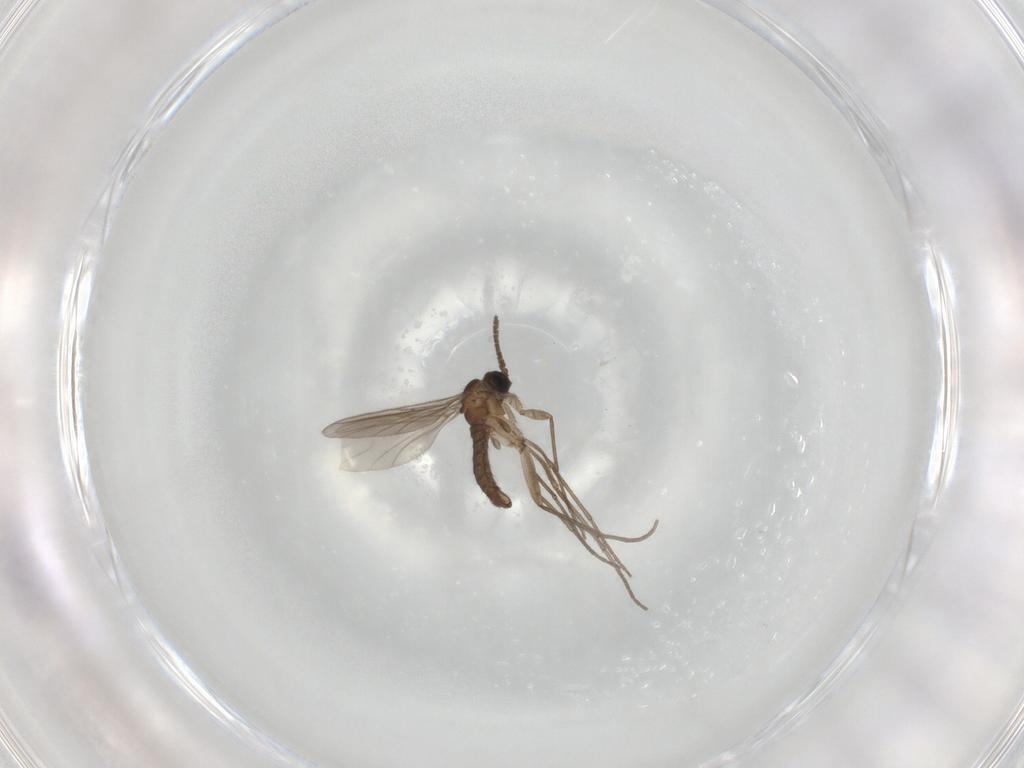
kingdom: Animalia
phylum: Arthropoda
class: Insecta
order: Diptera
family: Sciaridae
